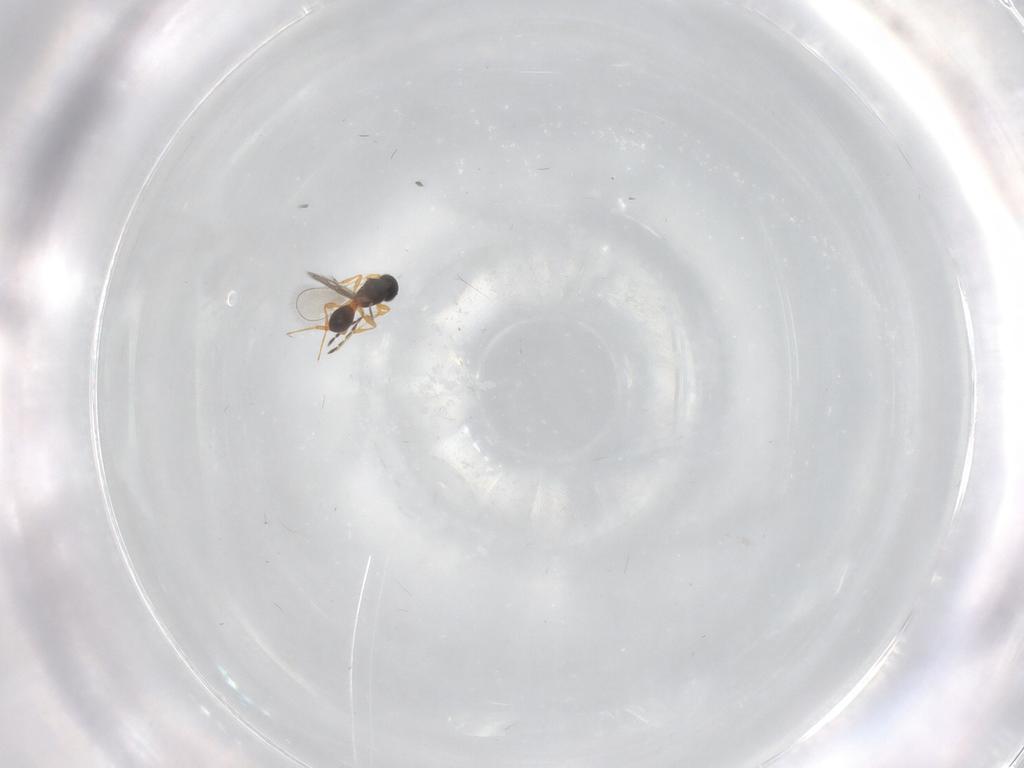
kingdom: Animalia
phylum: Arthropoda
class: Insecta
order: Hymenoptera
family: Platygastridae
